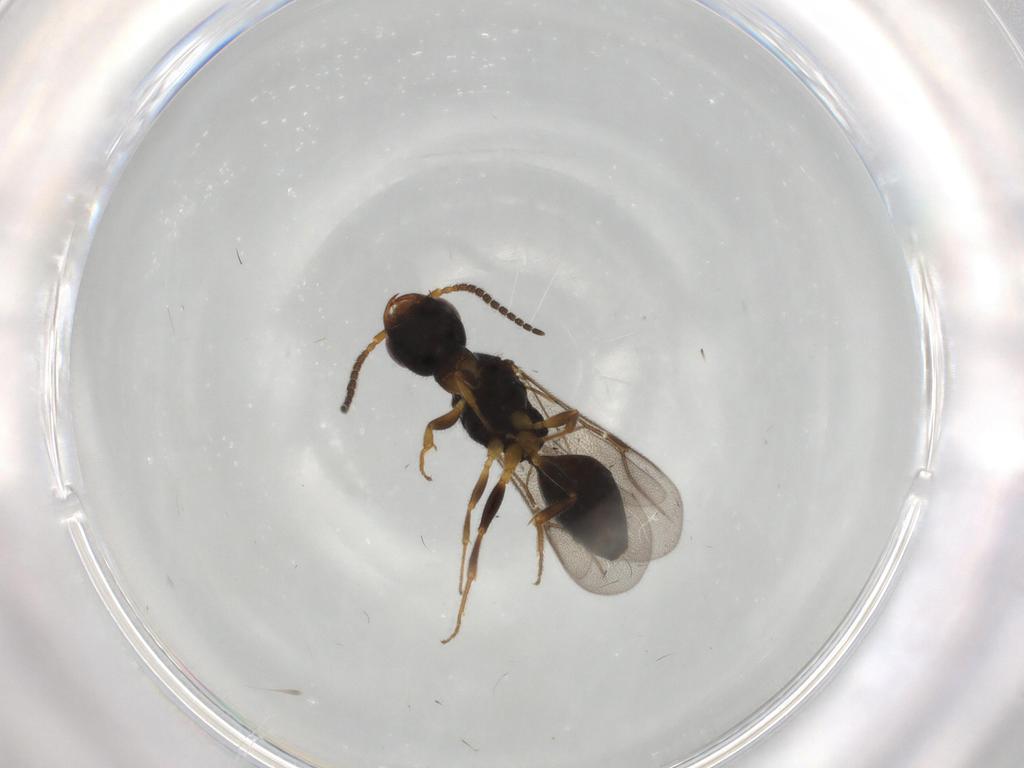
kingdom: Animalia
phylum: Arthropoda
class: Insecta
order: Hymenoptera
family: Bethylidae
